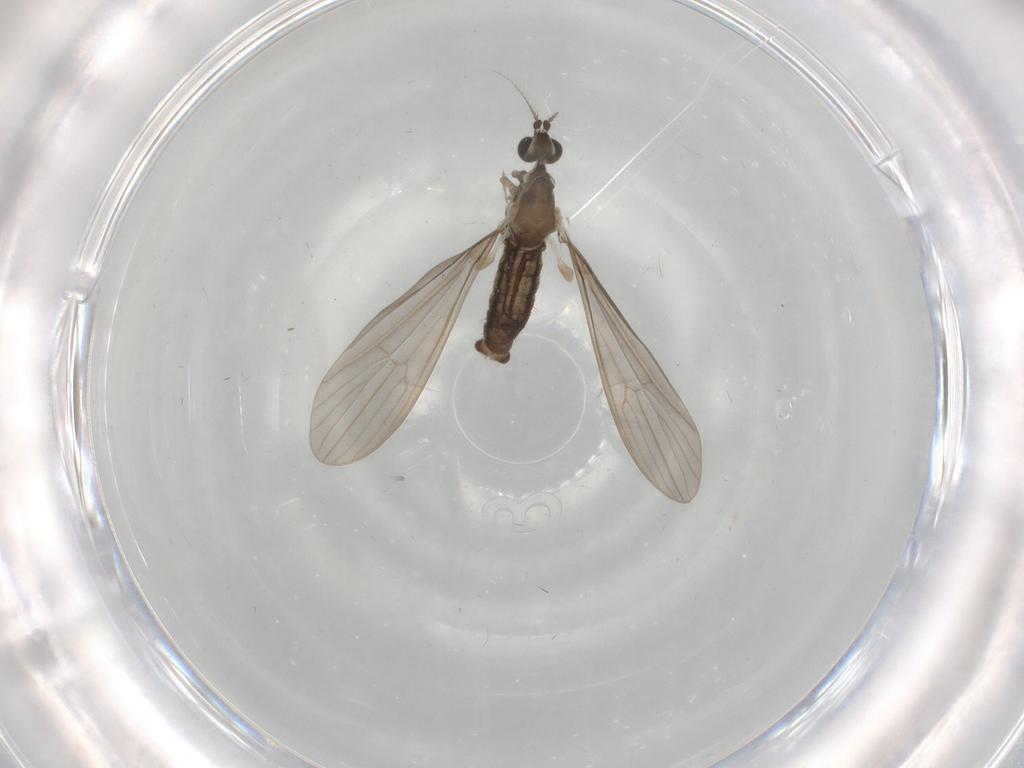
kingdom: Animalia
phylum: Arthropoda
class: Insecta
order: Diptera
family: Limoniidae
